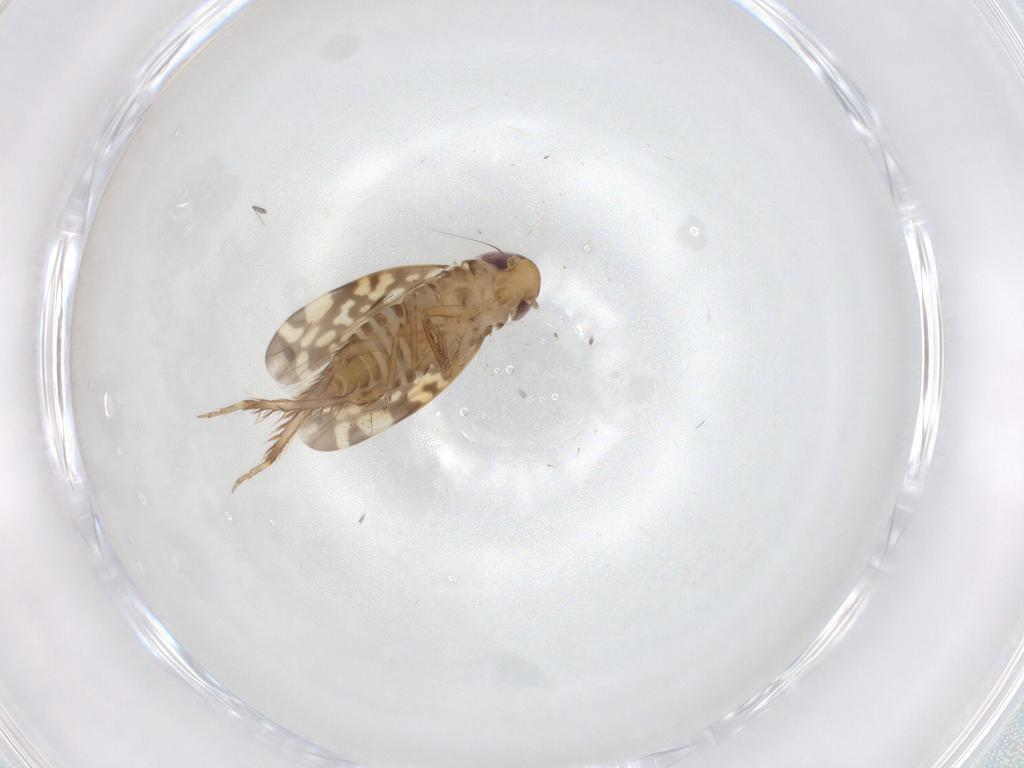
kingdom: Animalia
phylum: Arthropoda
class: Insecta
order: Hemiptera
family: Cicadellidae
